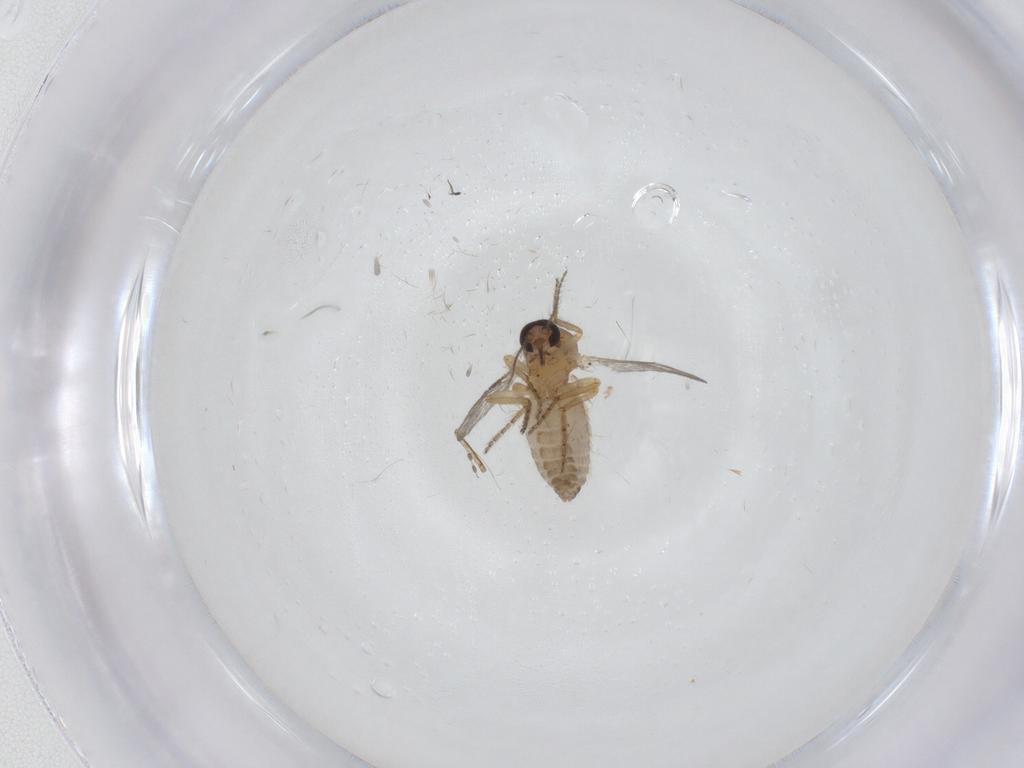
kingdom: Animalia
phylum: Arthropoda
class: Insecta
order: Diptera
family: Ceratopogonidae
